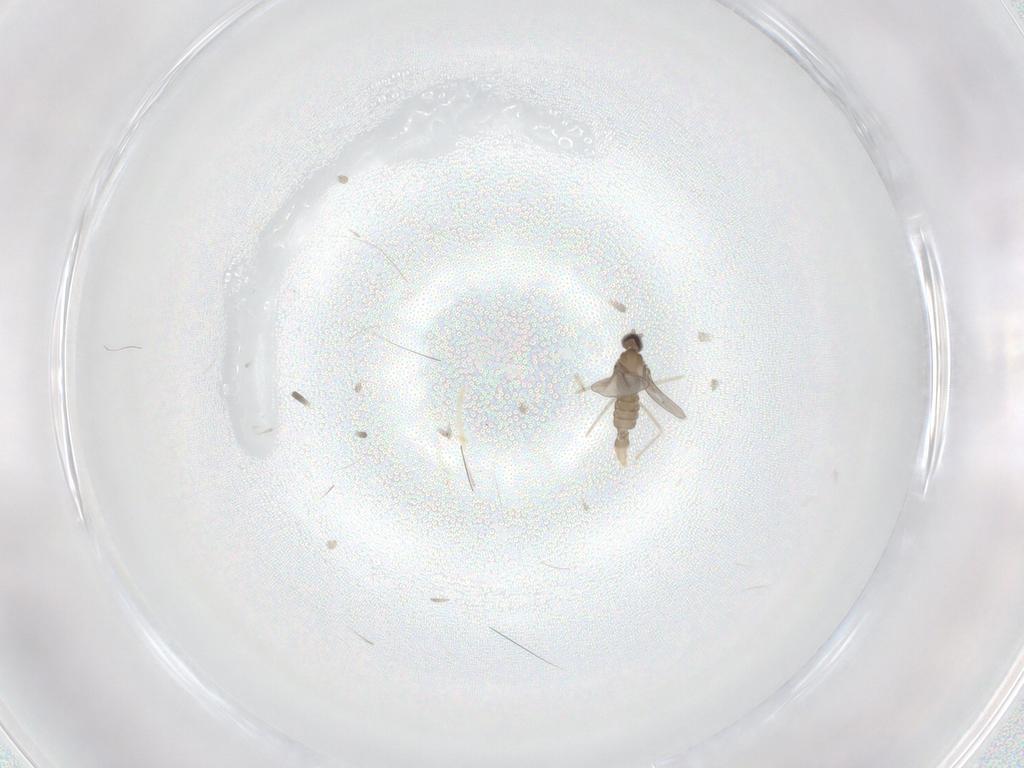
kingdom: Animalia
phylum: Arthropoda
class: Insecta
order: Diptera
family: Cecidomyiidae
